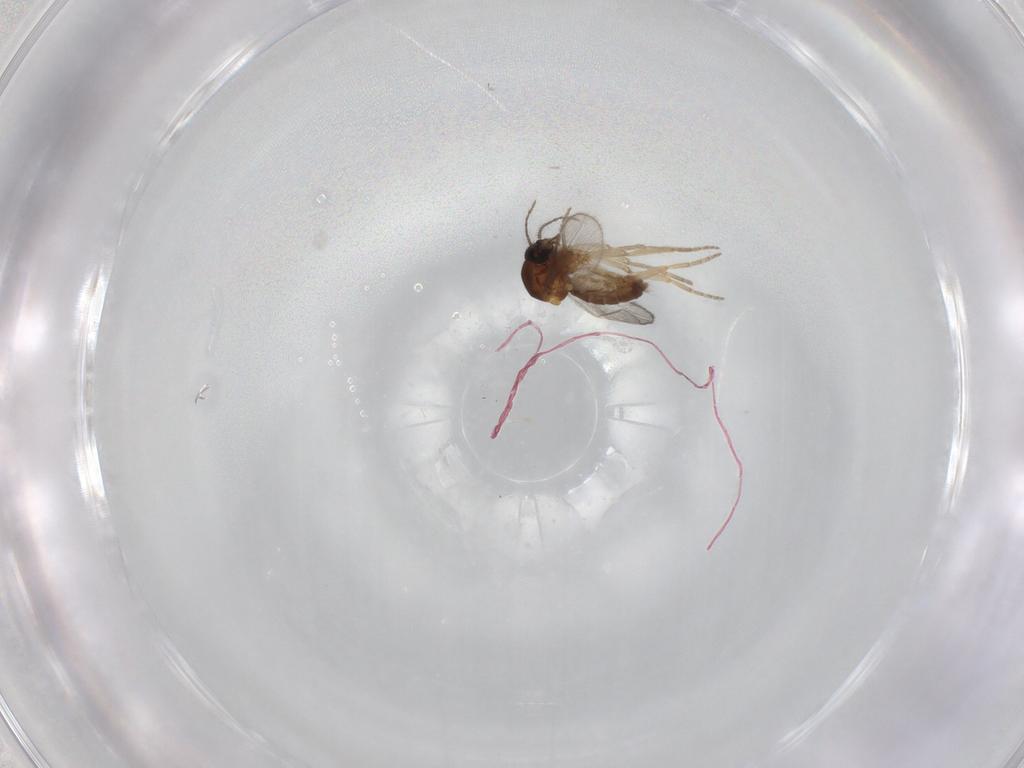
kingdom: Animalia
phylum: Arthropoda
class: Insecta
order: Diptera
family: Ceratopogonidae
